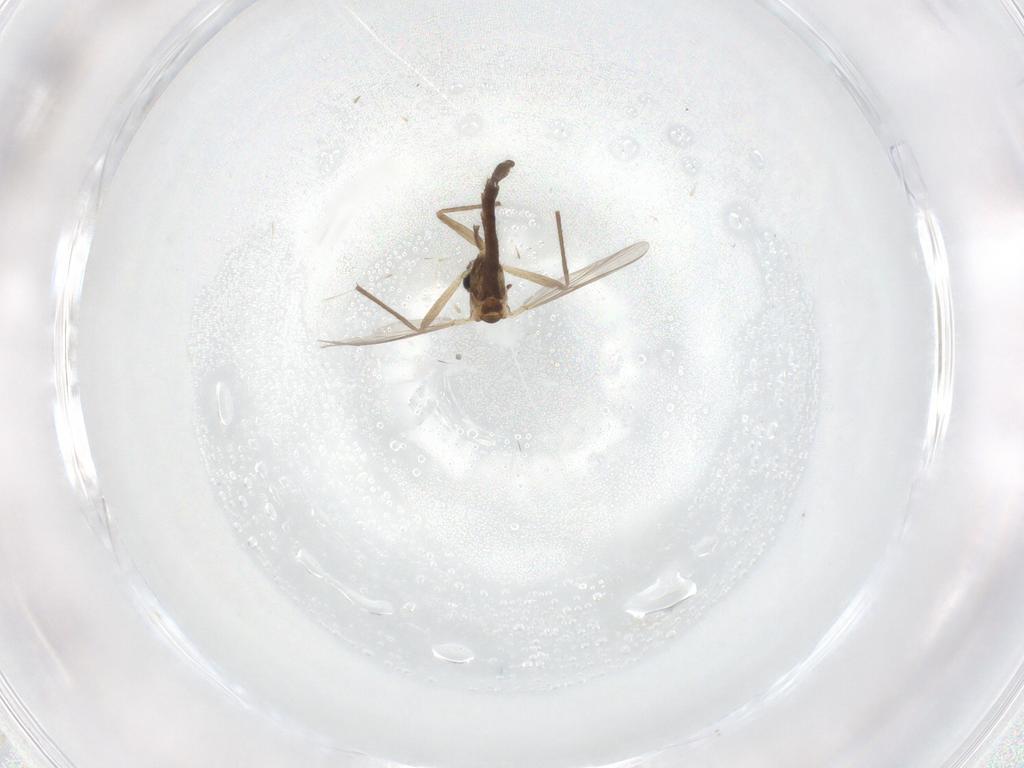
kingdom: Animalia
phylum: Arthropoda
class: Insecta
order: Diptera
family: Chironomidae
